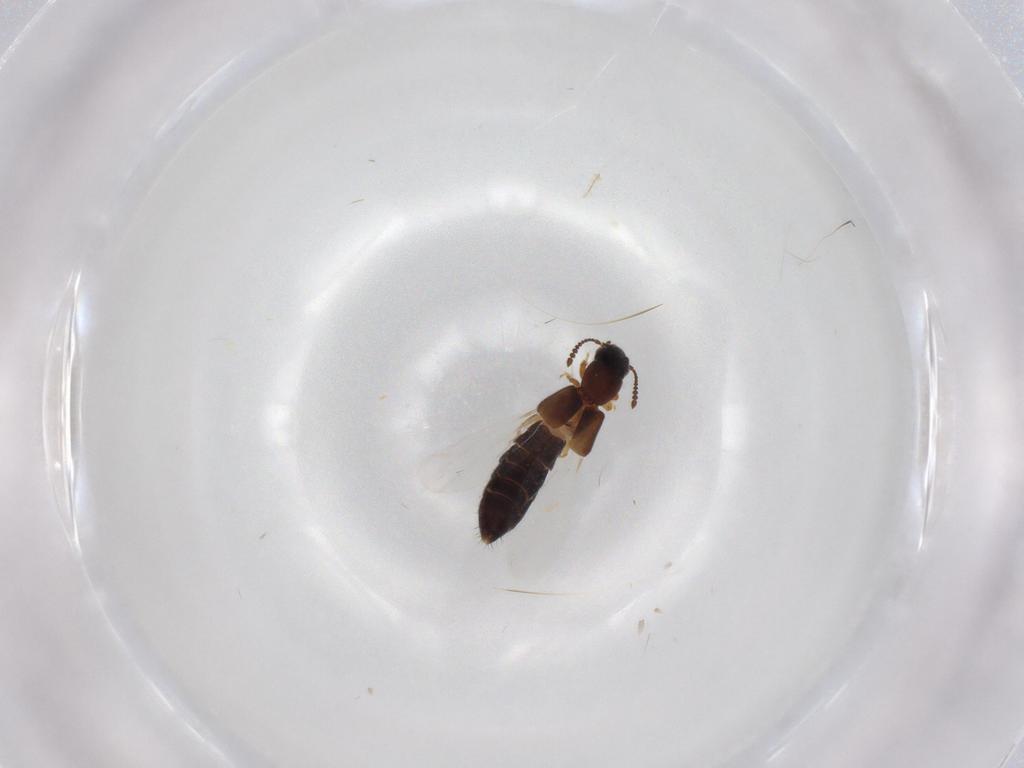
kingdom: Animalia
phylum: Arthropoda
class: Insecta
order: Coleoptera
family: Staphylinidae
